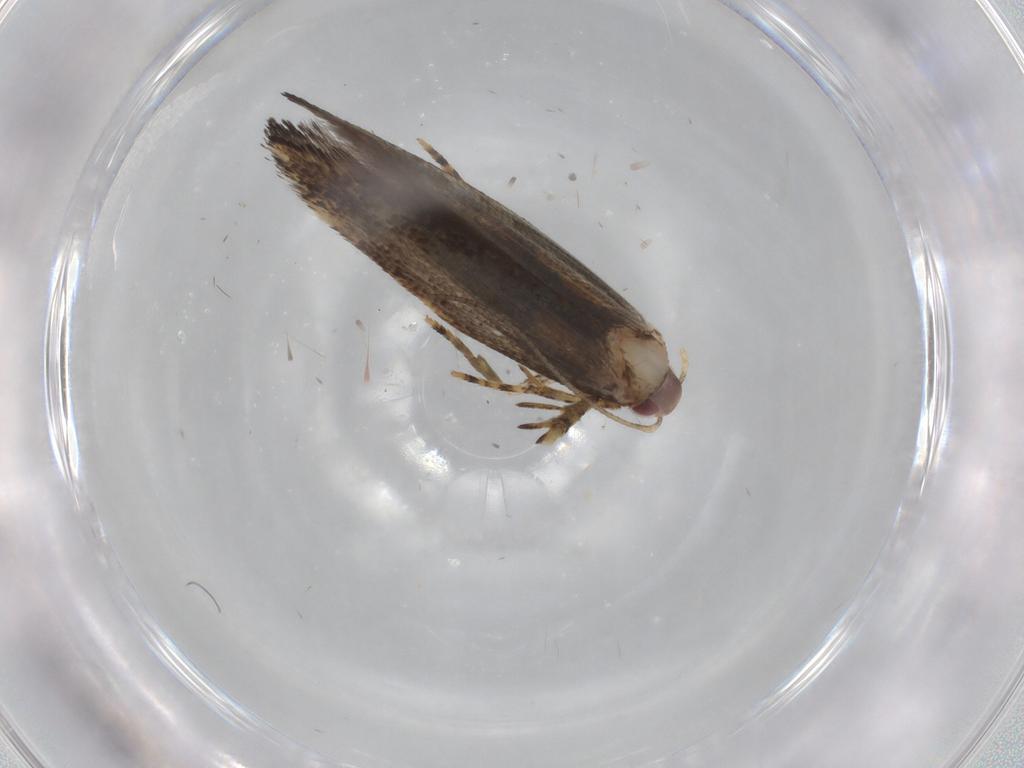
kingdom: Animalia
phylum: Arthropoda
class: Insecta
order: Lepidoptera
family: Cosmopterigidae
